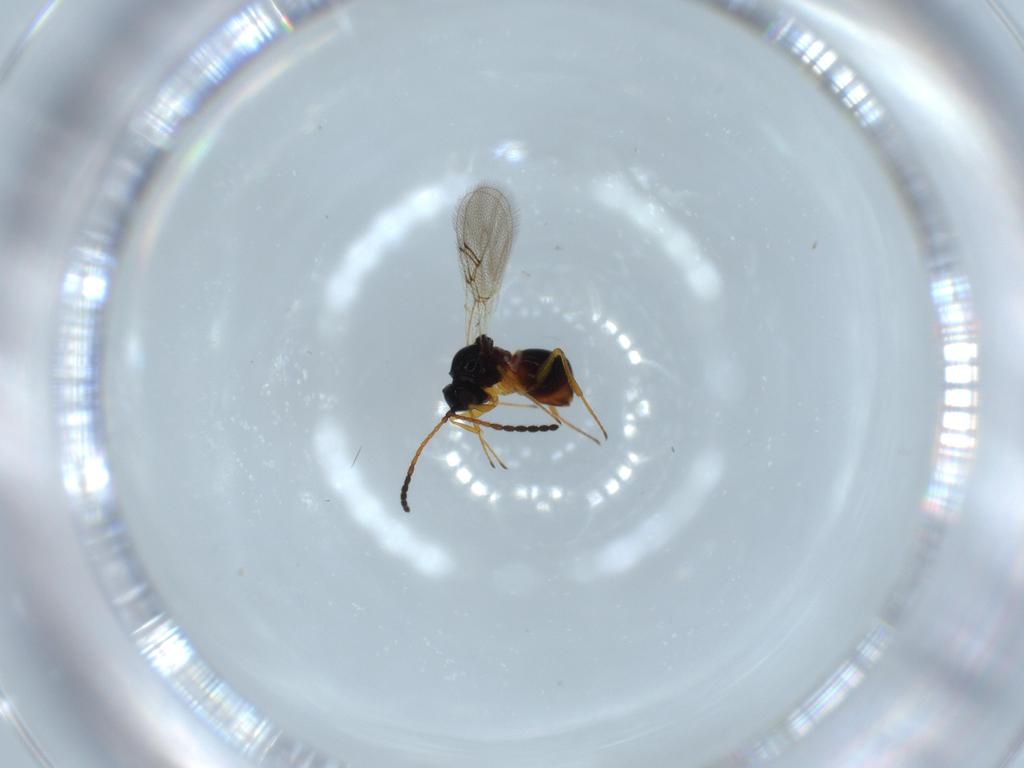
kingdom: Animalia
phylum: Arthropoda
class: Insecta
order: Hymenoptera
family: Figitidae
